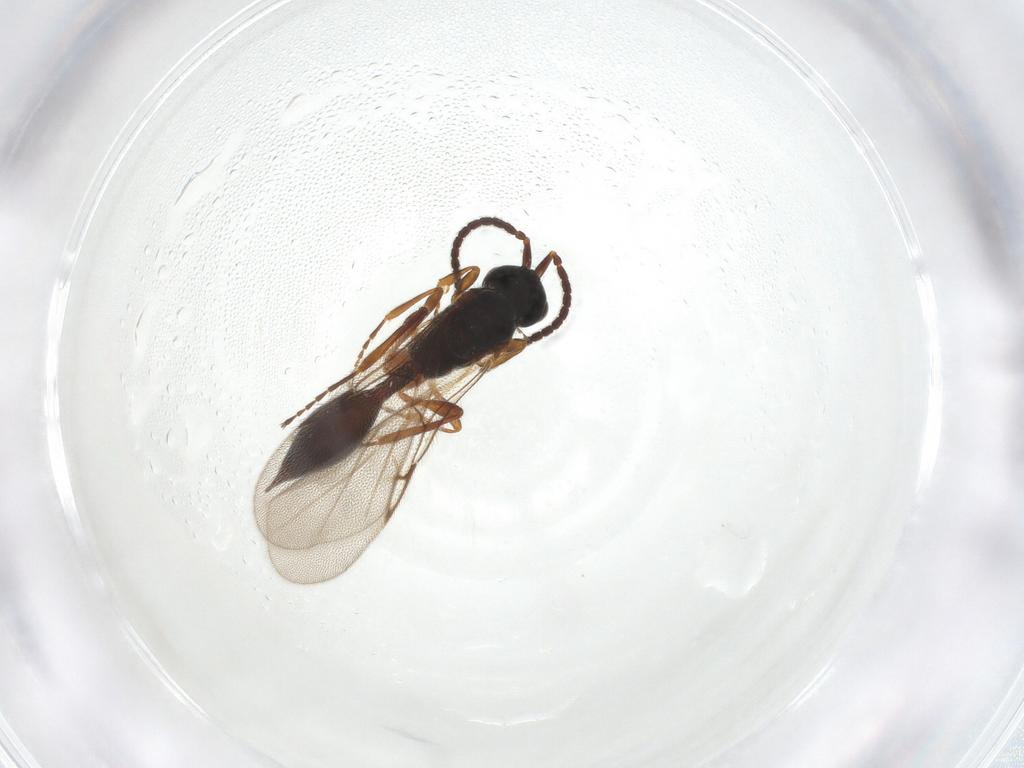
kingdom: Animalia
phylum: Arthropoda
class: Insecta
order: Hymenoptera
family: Diapriidae
